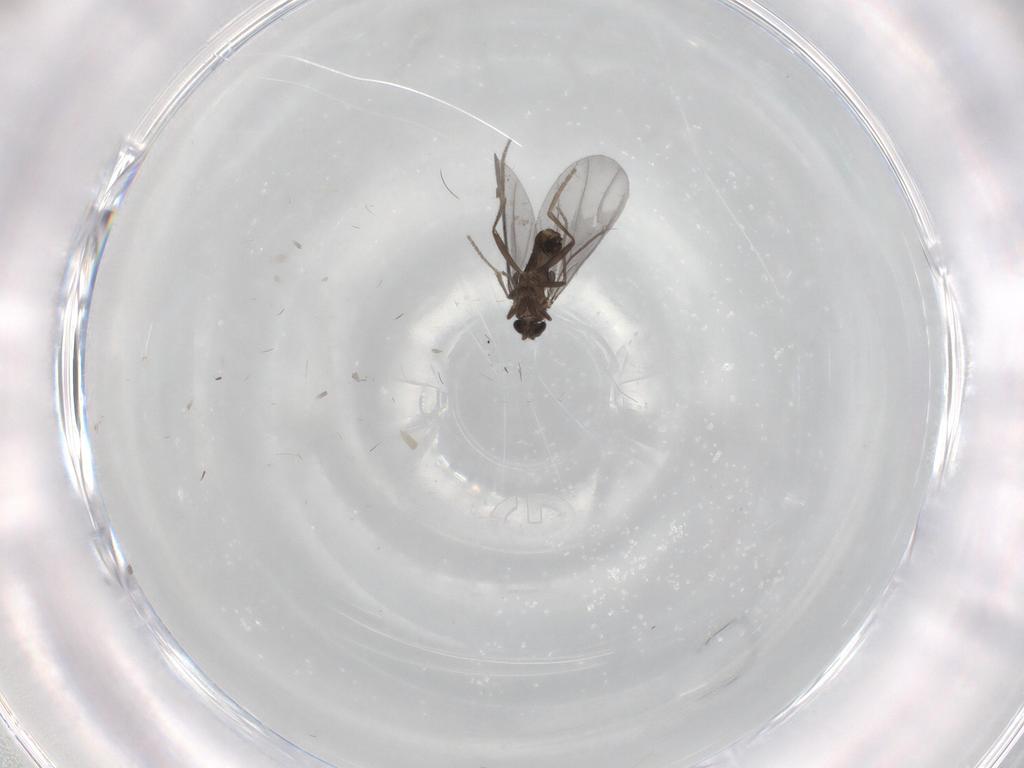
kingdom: Animalia
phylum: Arthropoda
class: Insecta
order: Diptera
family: Phoridae
